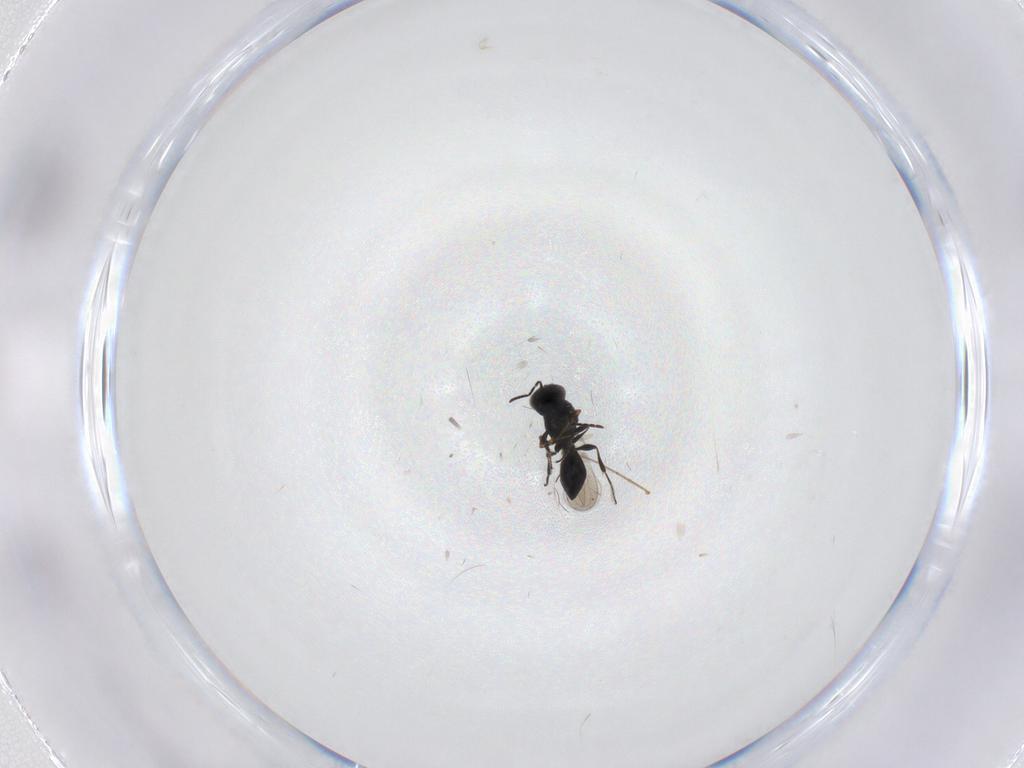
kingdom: Animalia
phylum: Arthropoda
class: Insecta
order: Hymenoptera
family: Platygastridae
